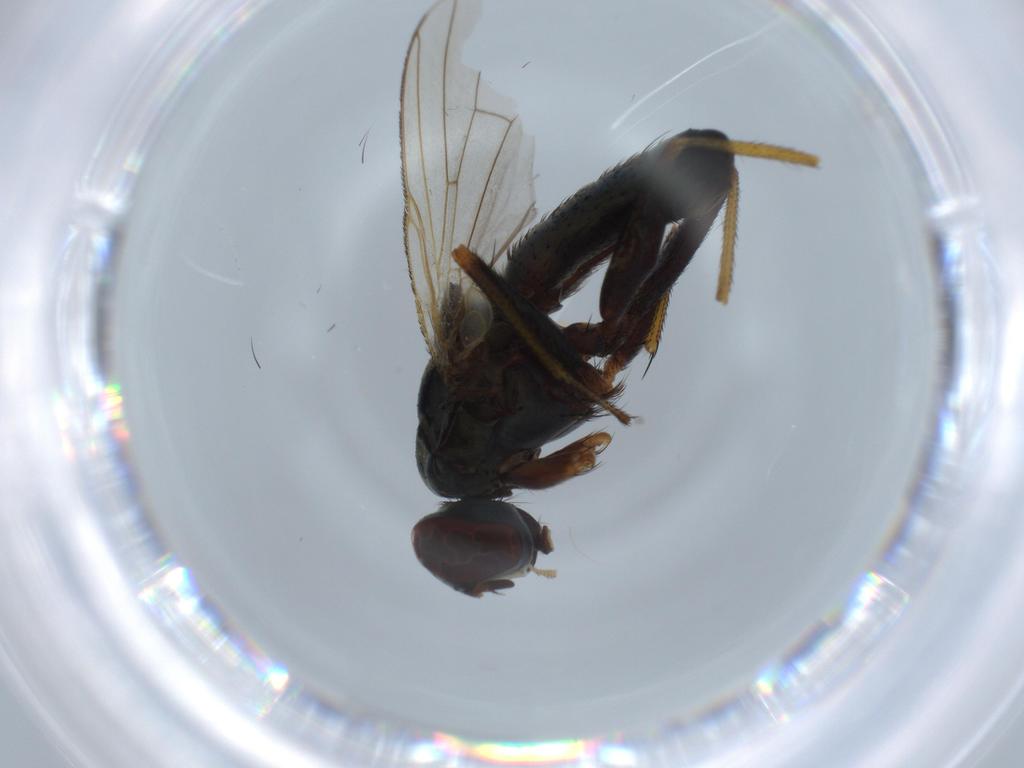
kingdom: Animalia
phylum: Arthropoda
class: Insecta
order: Diptera
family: Ceratopogonidae
